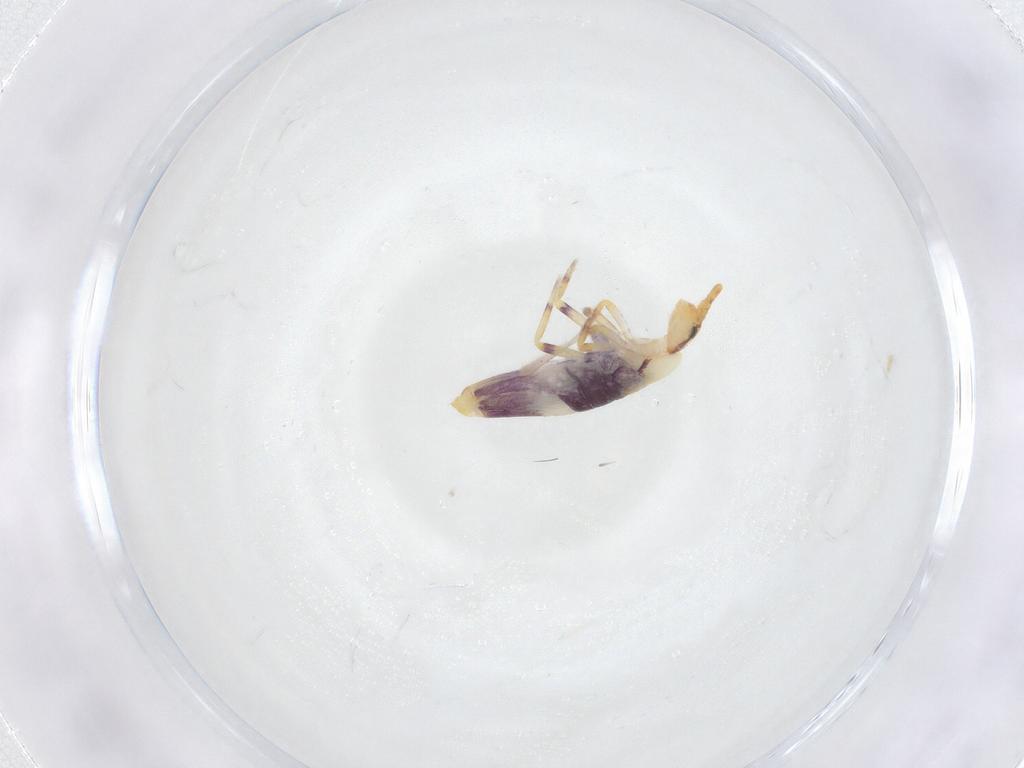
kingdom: Animalia
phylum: Arthropoda
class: Collembola
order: Entomobryomorpha
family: Entomobryidae
